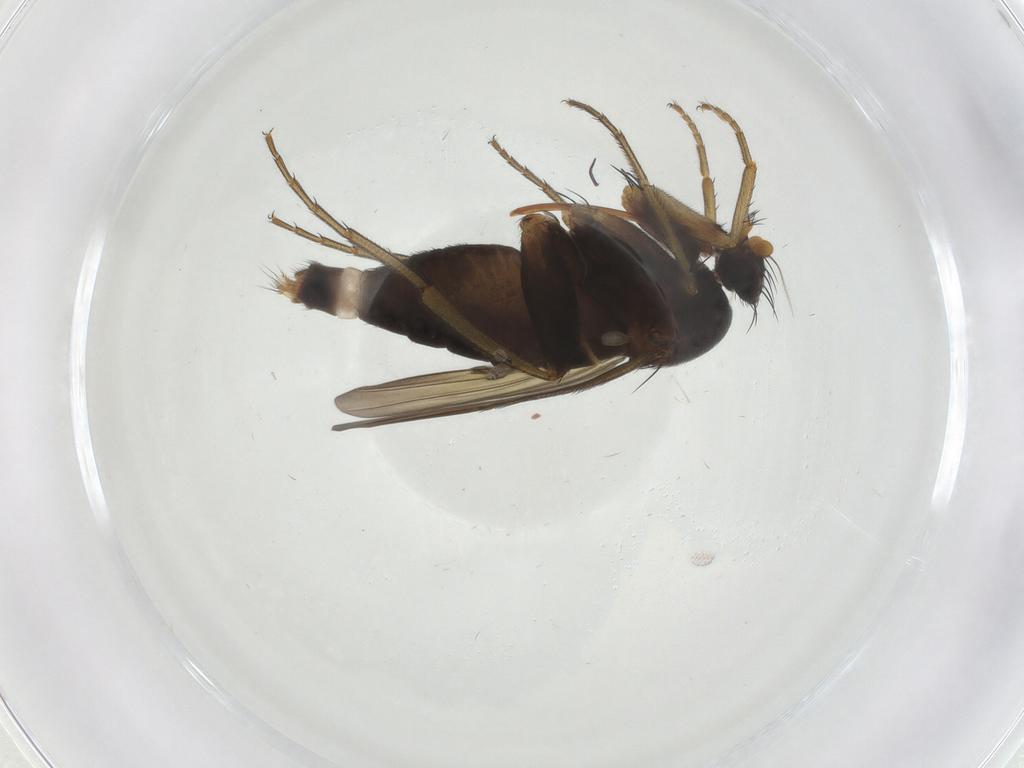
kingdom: Animalia
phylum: Arthropoda
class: Insecta
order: Diptera
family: Phoridae
